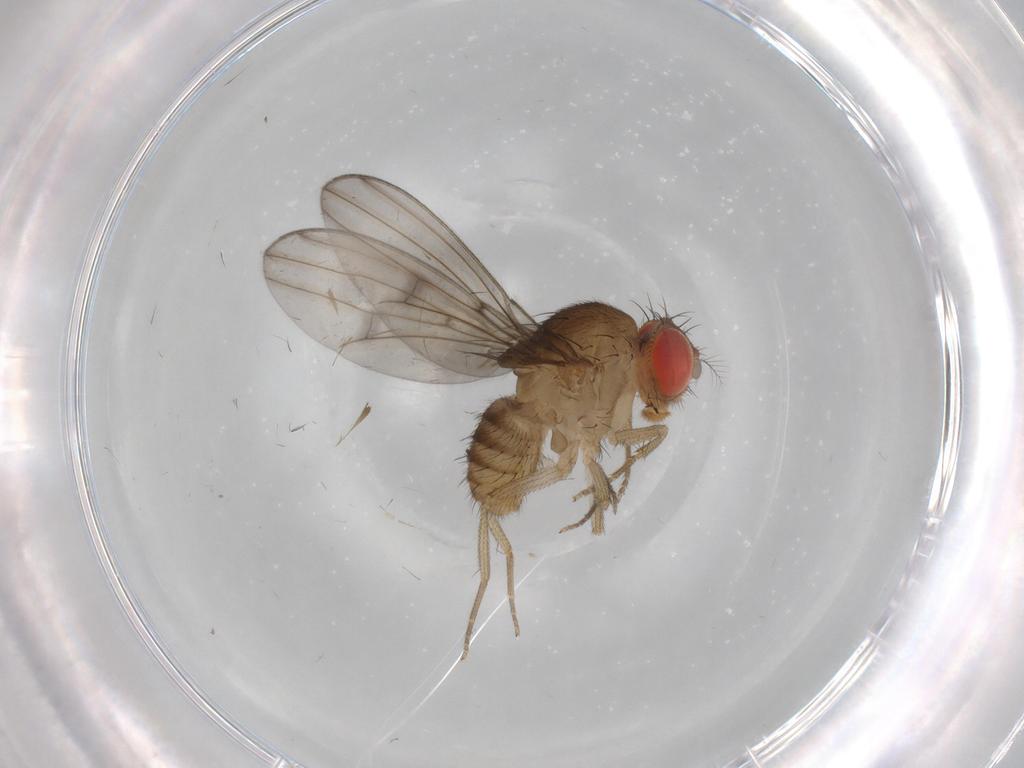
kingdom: Animalia
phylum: Arthropoda
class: Insecta
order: Diptera
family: Drosophilidae
